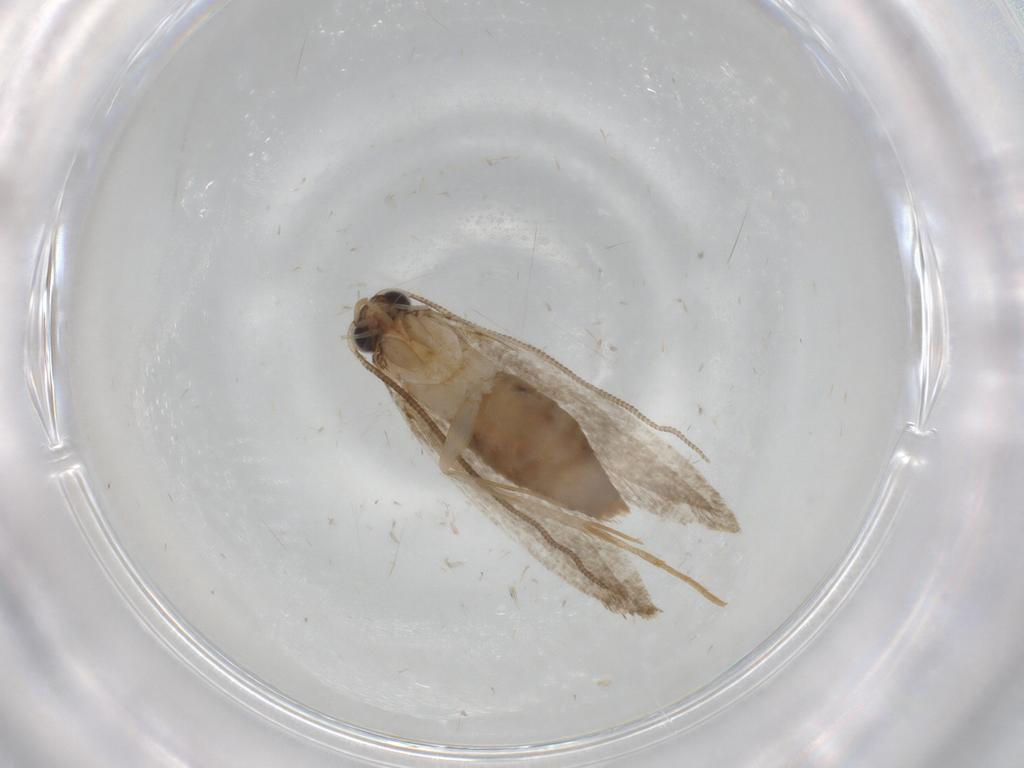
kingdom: Animalia
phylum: Arthropoda
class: Insecta
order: Lepidoptera
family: Tineidae
